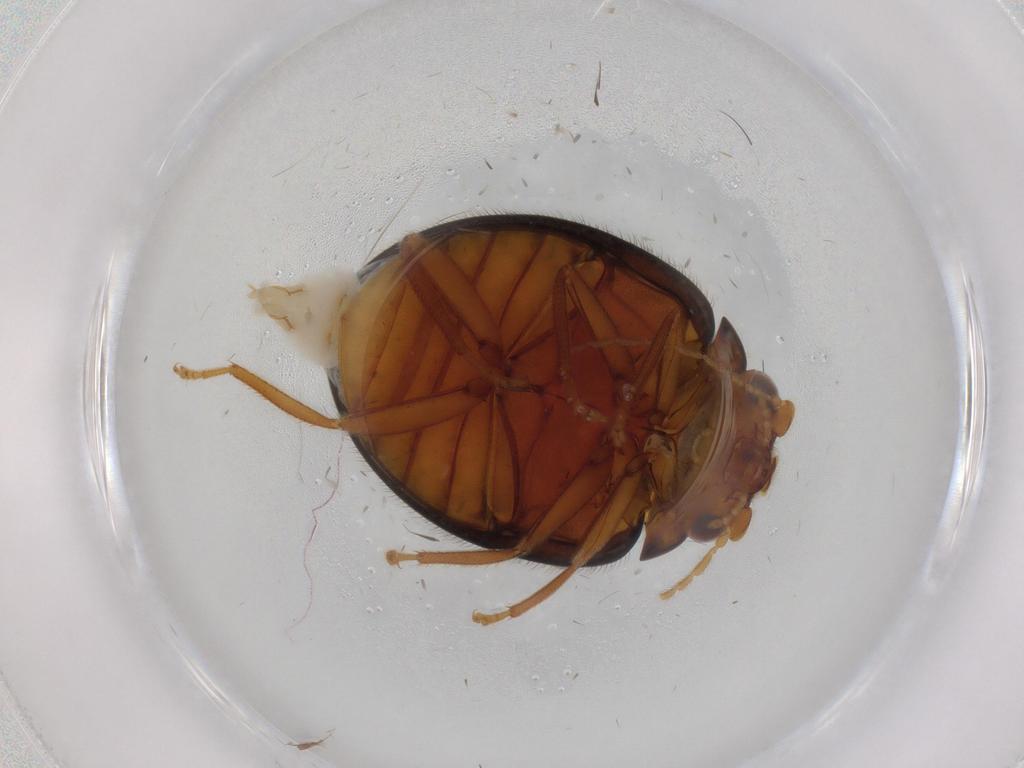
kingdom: Animalia
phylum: Arthropoda
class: Insecta
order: Coleoptera
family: Scirtidae
